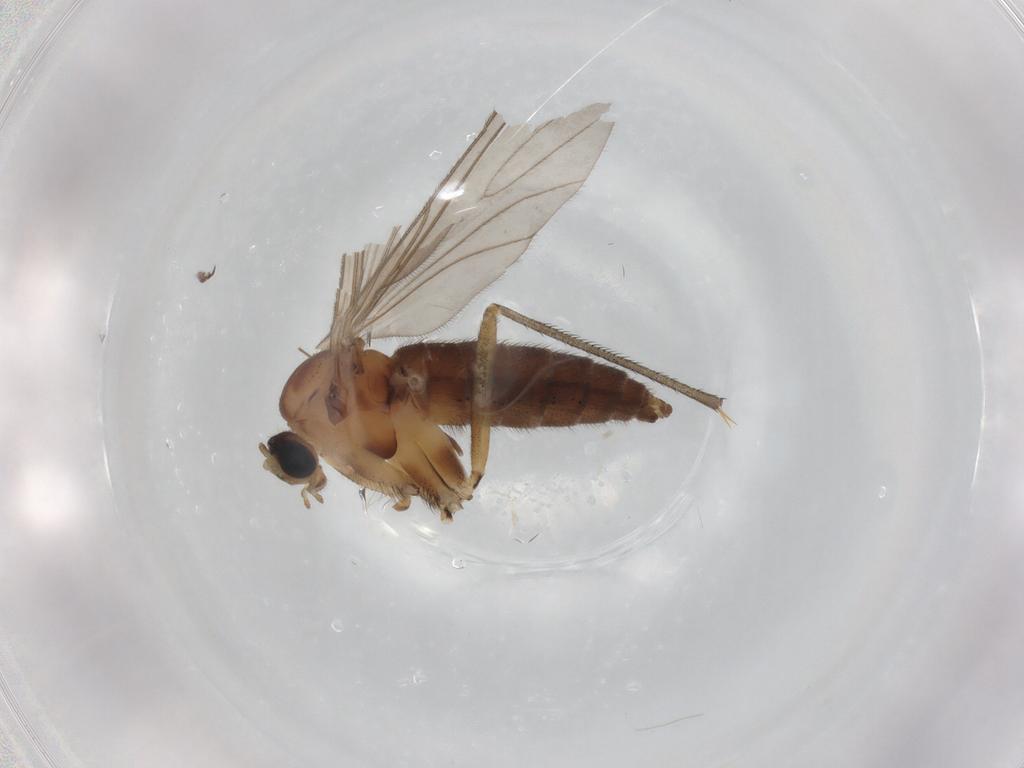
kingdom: Animalia
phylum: Arthropoda
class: Insecta
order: Diptera
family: Sciaridae
